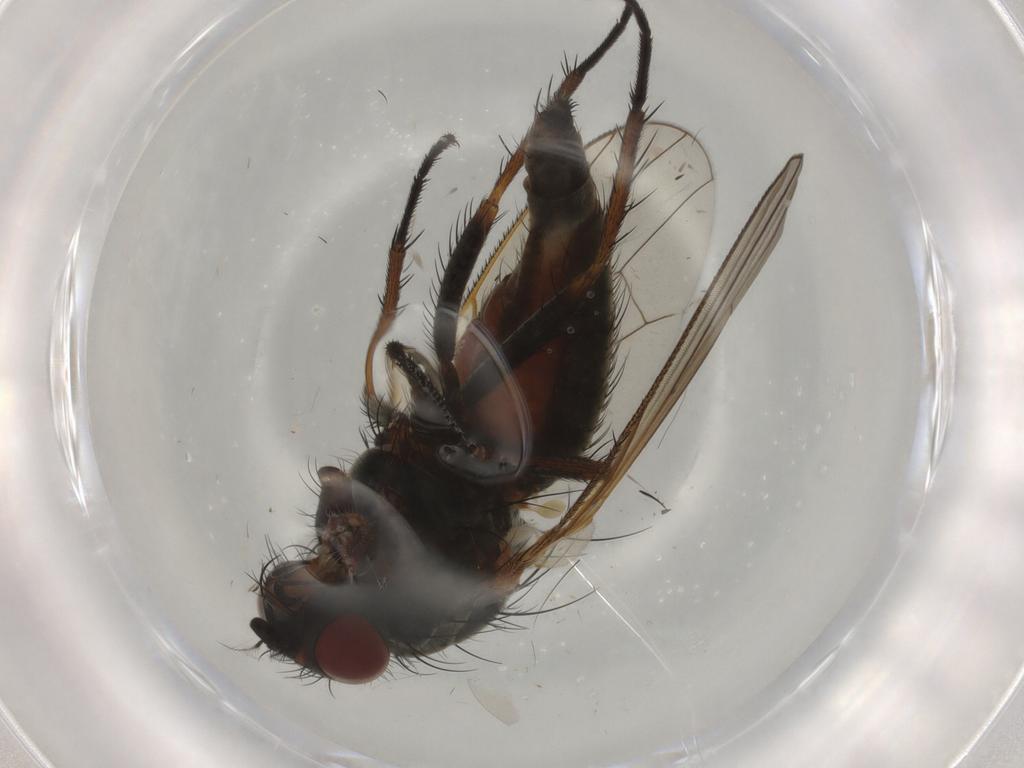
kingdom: Animalia
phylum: Arthropoda
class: Insecta
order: Diptera
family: Anthomyiidae
